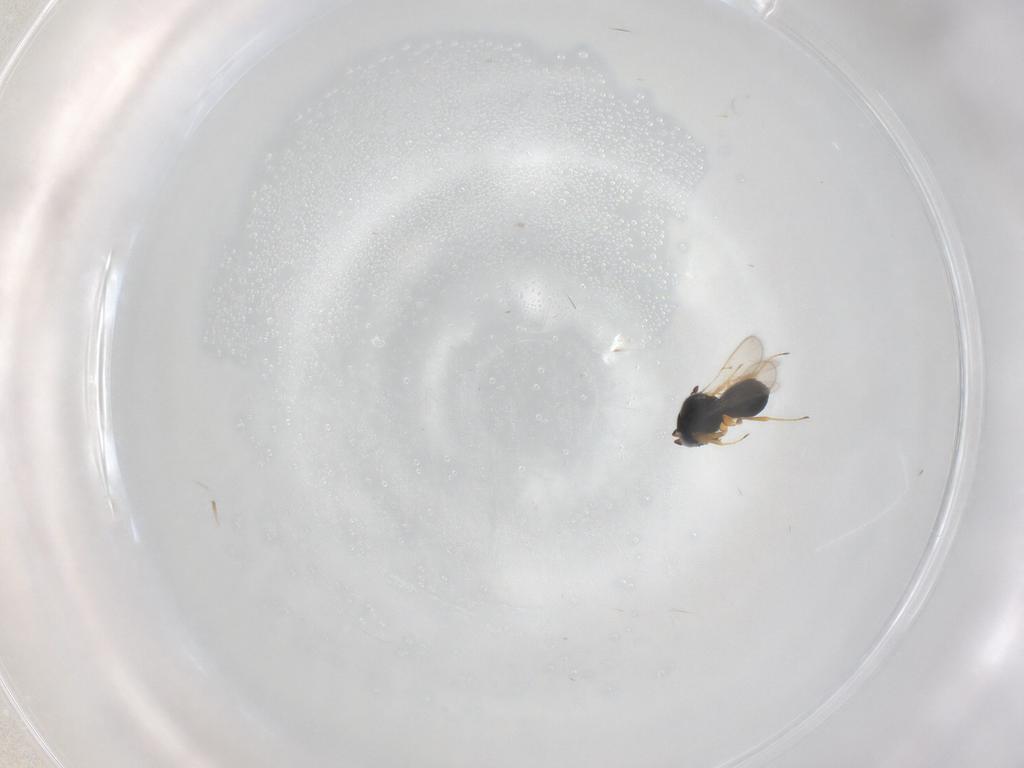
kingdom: Animalia
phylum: Arthropoda
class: Insecta
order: Hymenoptera
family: Scelionidae
